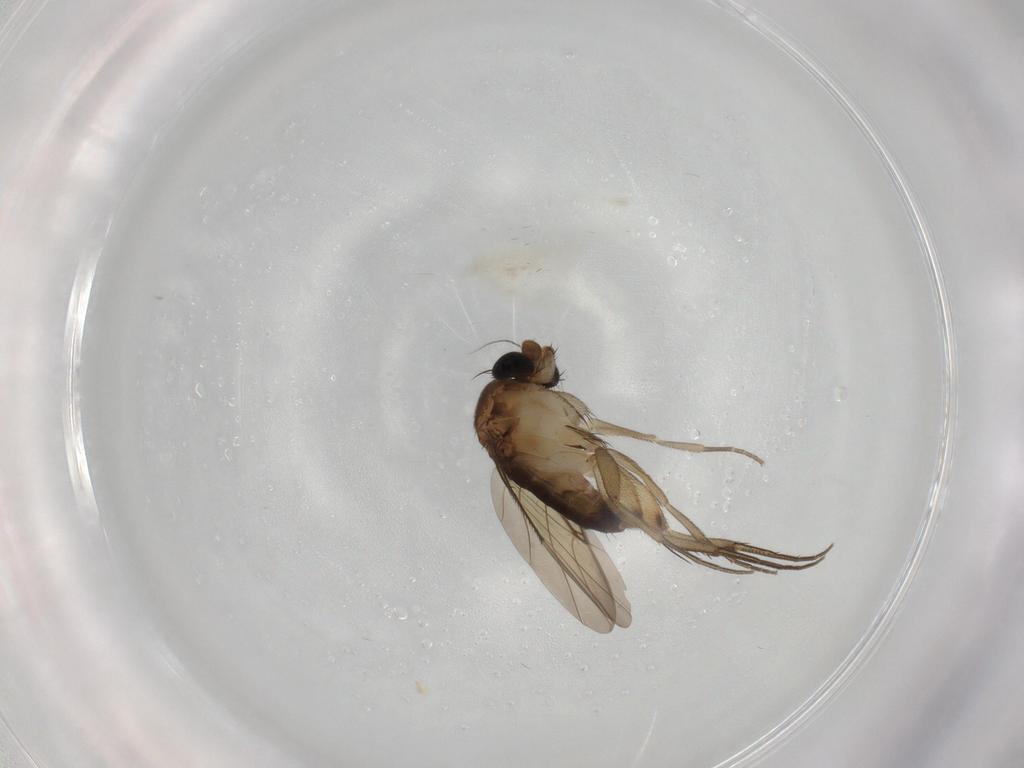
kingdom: Animalia
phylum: Arthropoda
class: Insecta
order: Diptera
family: Phoridae
